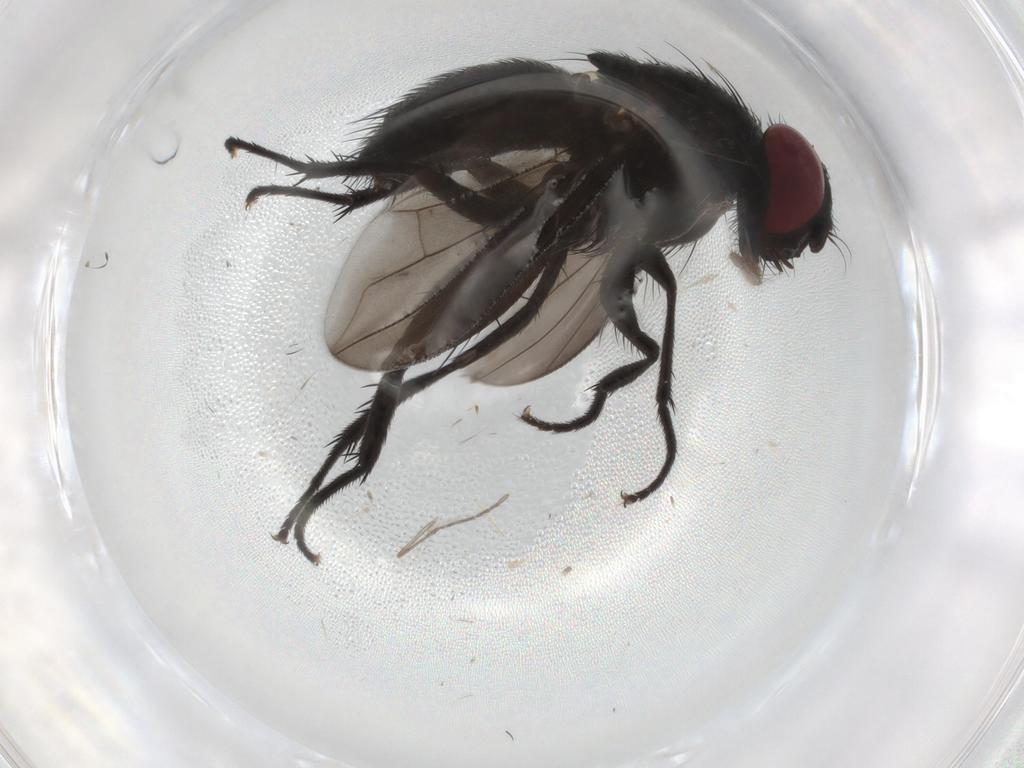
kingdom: Animalia
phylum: Arthropoda
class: Insecta
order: Diptera
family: Calliphoridae
